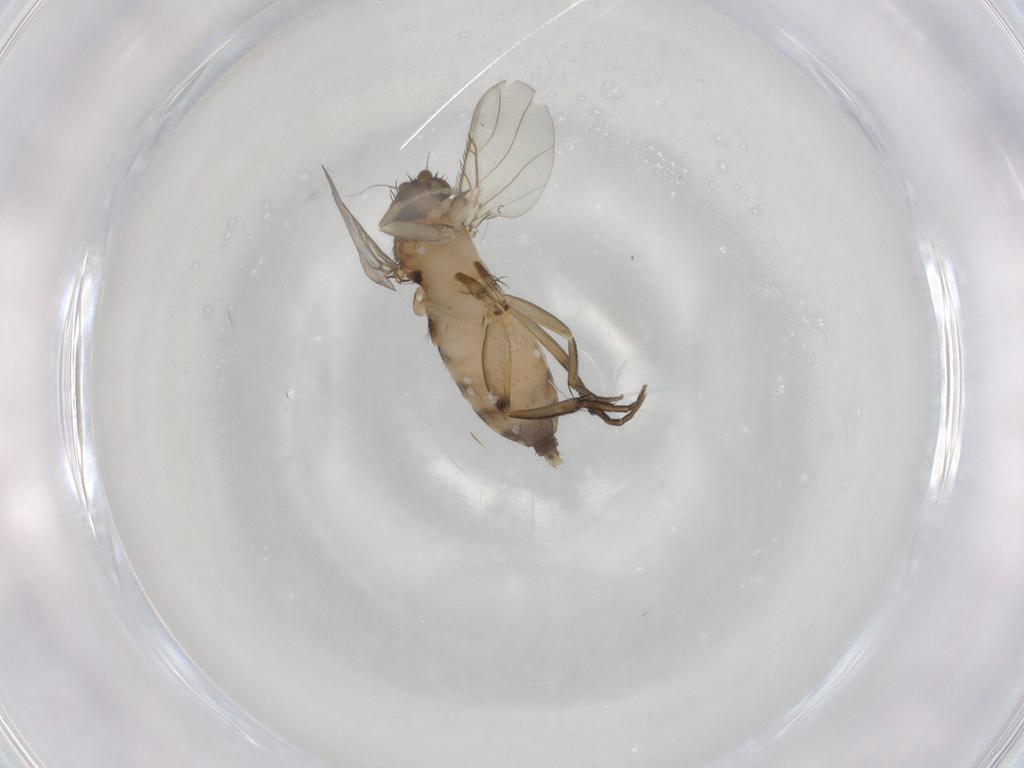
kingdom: Animalia
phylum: Arthropoda
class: Insecta
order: Diptera
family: Phoridae
